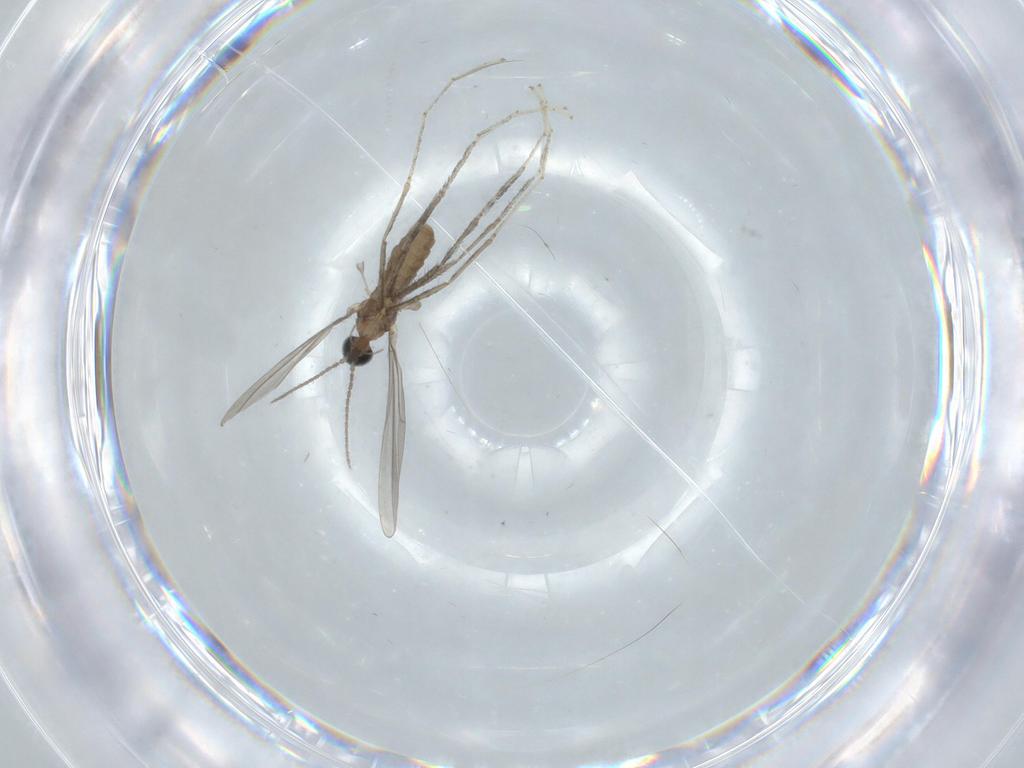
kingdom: Animalia
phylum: Arthropoda
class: Insecta
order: Diptera
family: Cecidomyiidae
